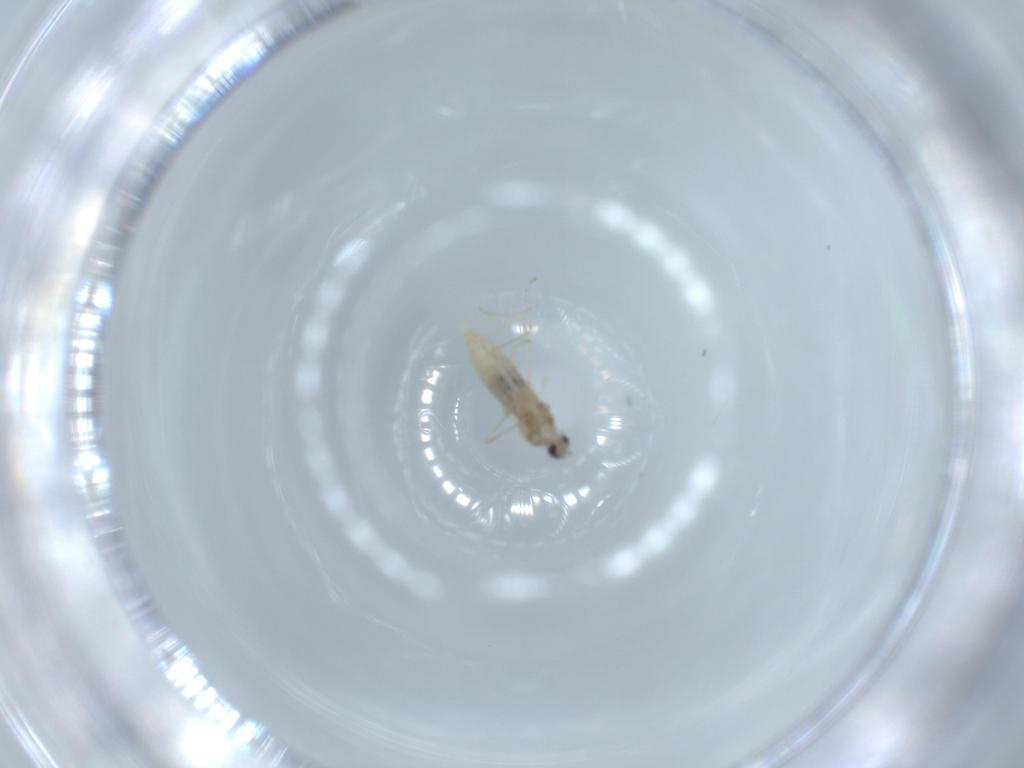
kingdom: Animalia
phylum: Arthropoda
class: Insecta
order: Diptera
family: Cecidomyiidae
